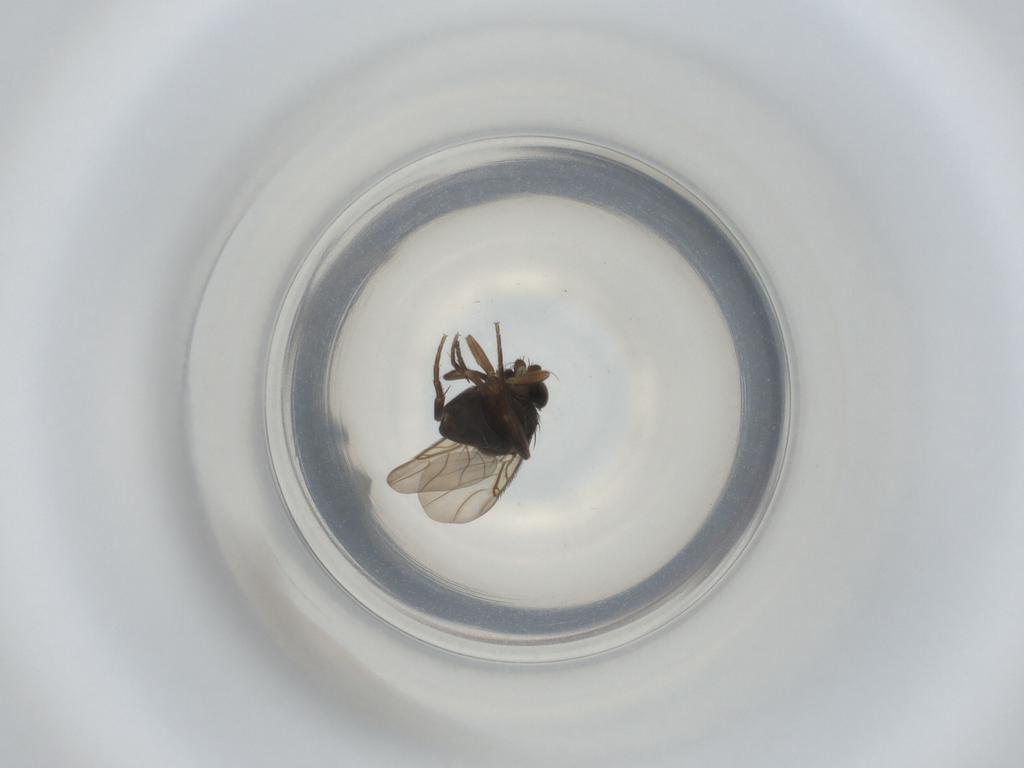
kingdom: Animalia
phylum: Arthropoda
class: Insecta
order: Diptera
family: Phoridae
